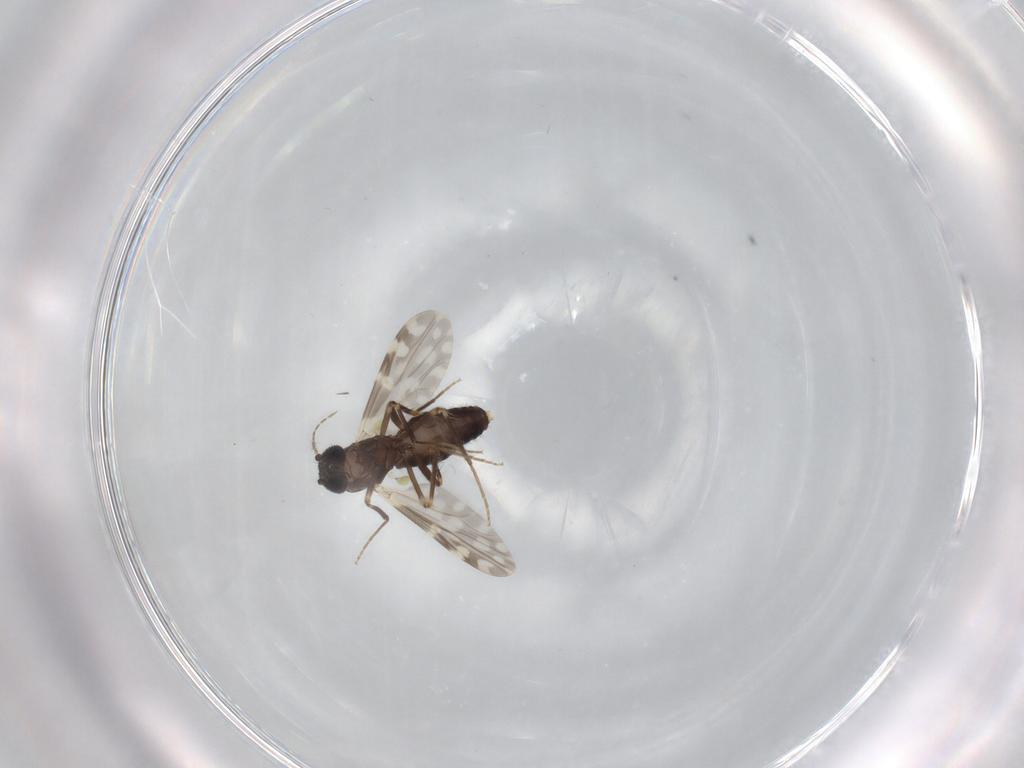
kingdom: Animalia
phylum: Arthropoda
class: Insecta
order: Diptera
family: Ceratopogonidae
